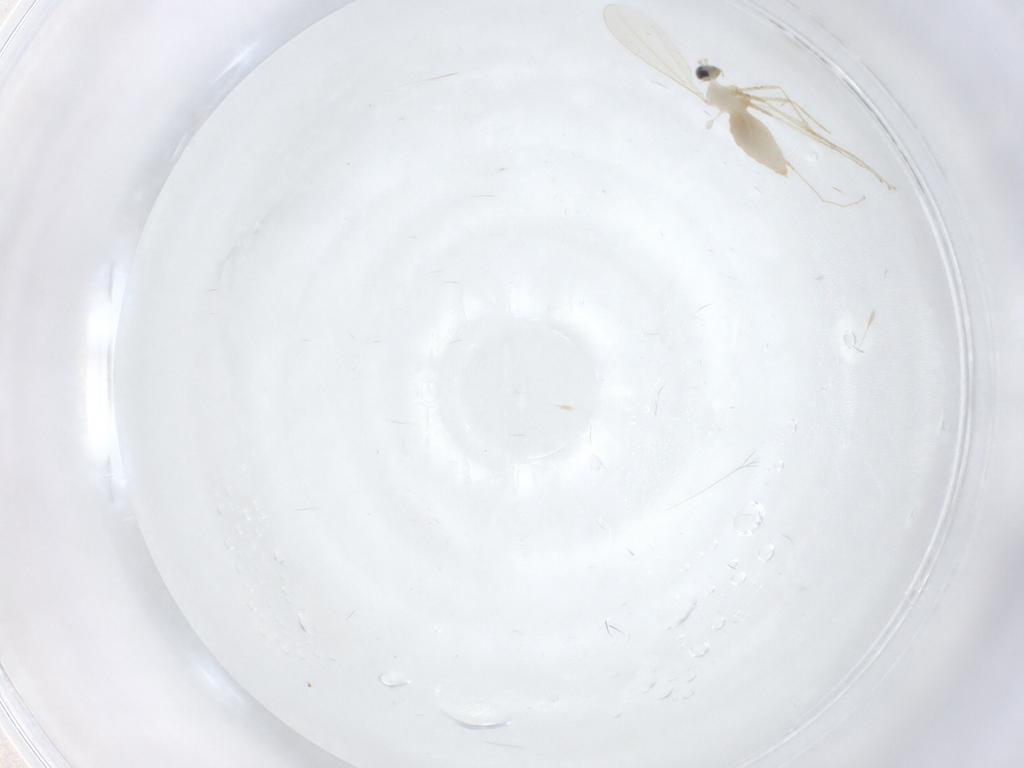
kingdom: Animalia
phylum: Arthropoda
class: Insecta
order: Diptera
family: Cecidomyiidae
